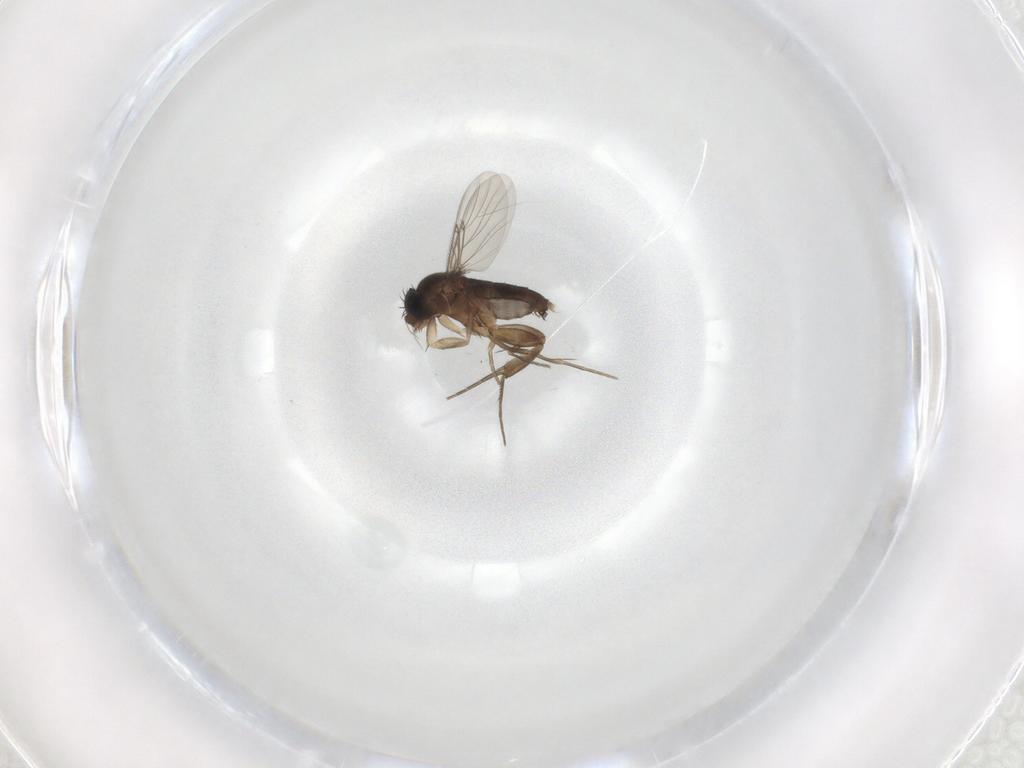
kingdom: Animalia
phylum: Arthropoda
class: Insecta
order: Diptera
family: Phoridae
